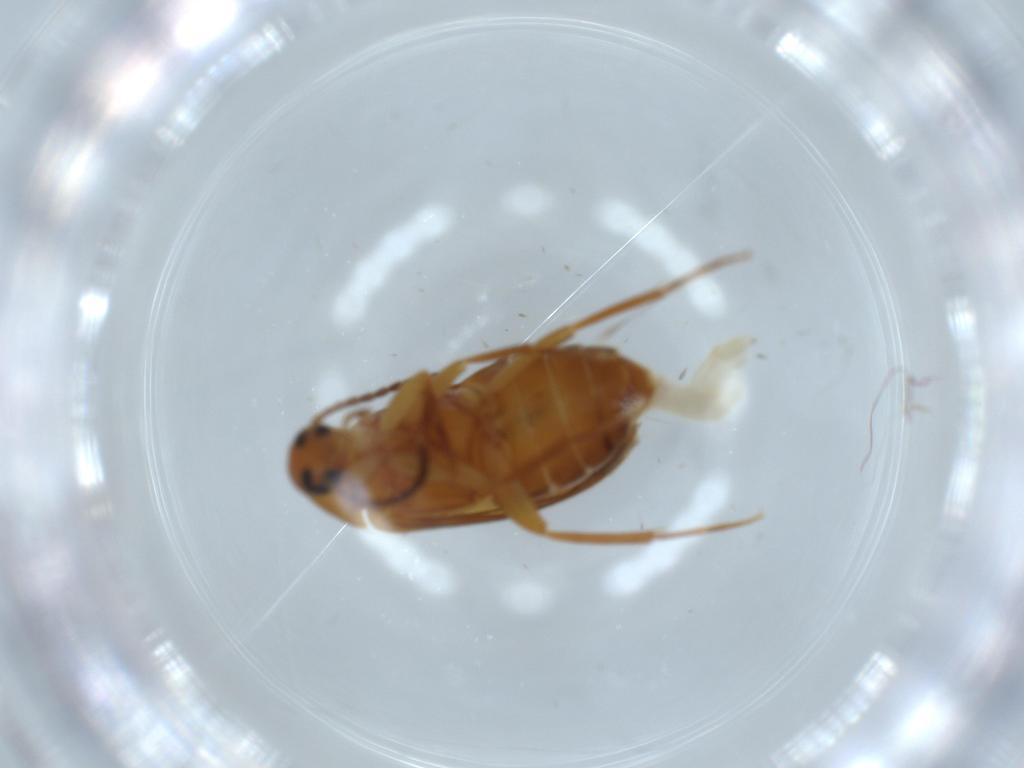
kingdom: Animalia
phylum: Arthropoda
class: Insecta
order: Coleoptera
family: Scraptiidae
